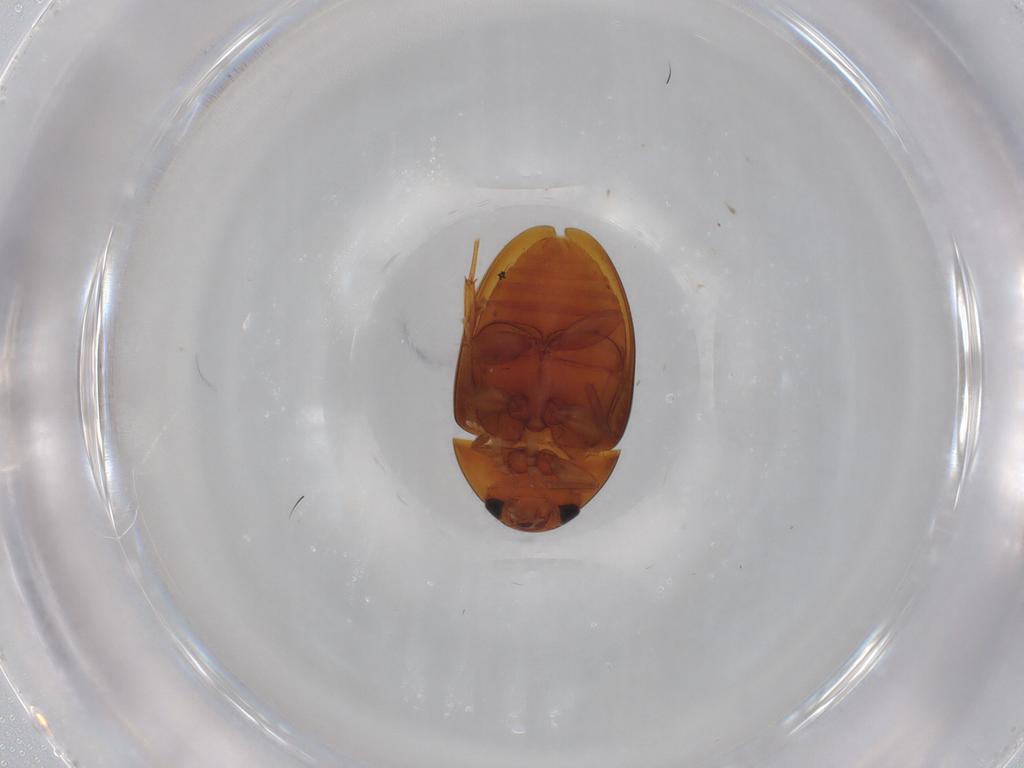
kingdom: Animalia
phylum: Arthropoda
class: Insecta
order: Coleoptera
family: Phalacridae
